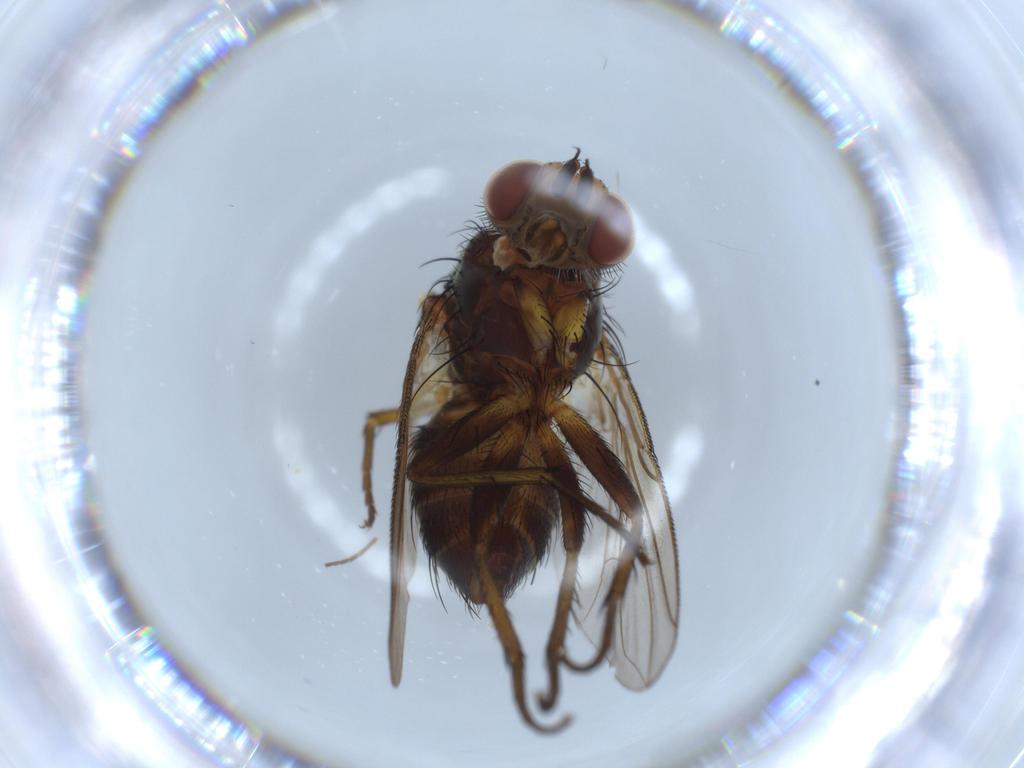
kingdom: Animalia
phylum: Arthropoda
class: Insecta
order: Diptera
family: Tachinidae
